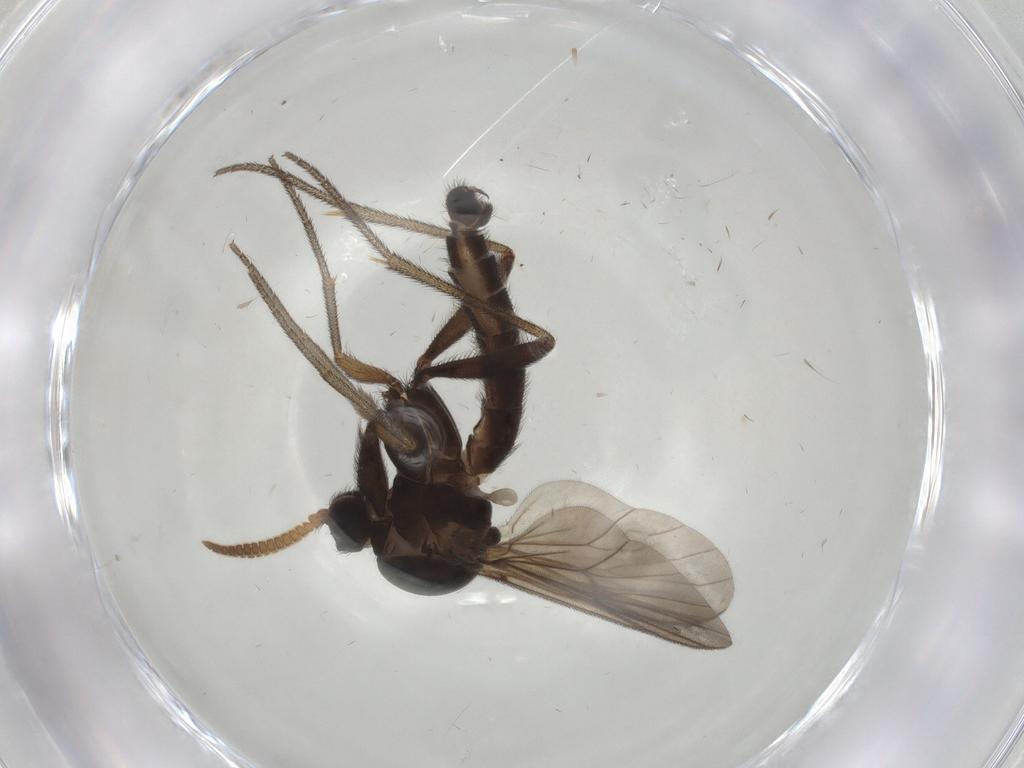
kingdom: Animalia
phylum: Arthropoda
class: Insecta
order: Diptera
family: Mycetophilidae
